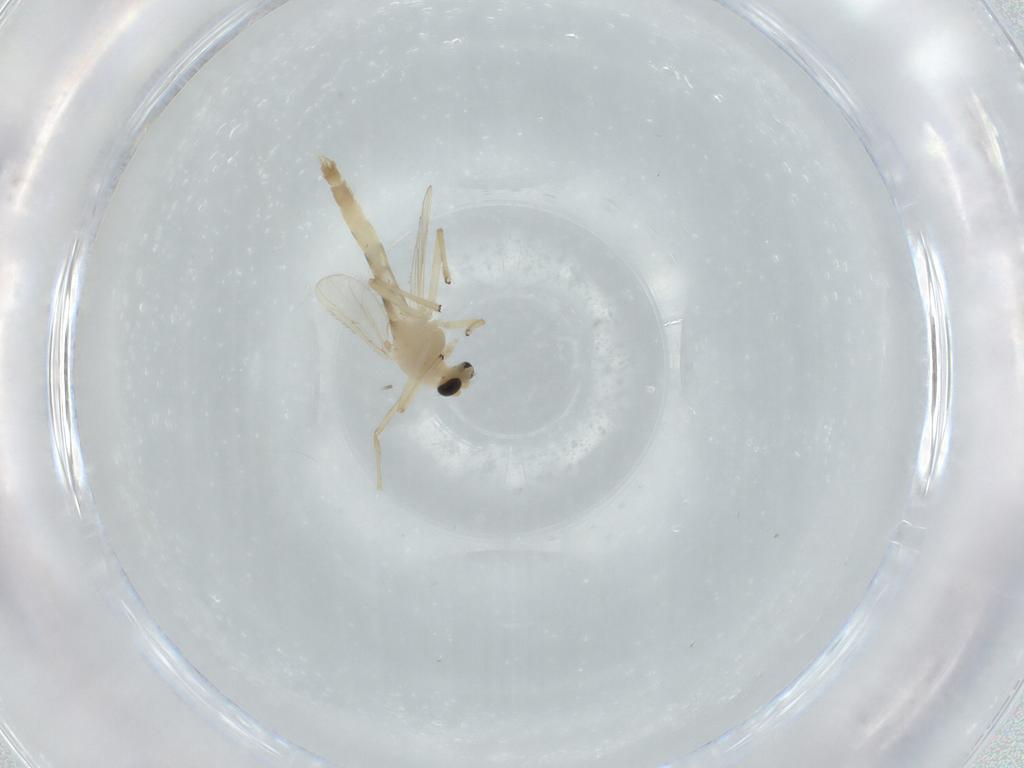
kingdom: Animalia
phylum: Arthropoda
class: Insecta
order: Diptera
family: Chironomidae
